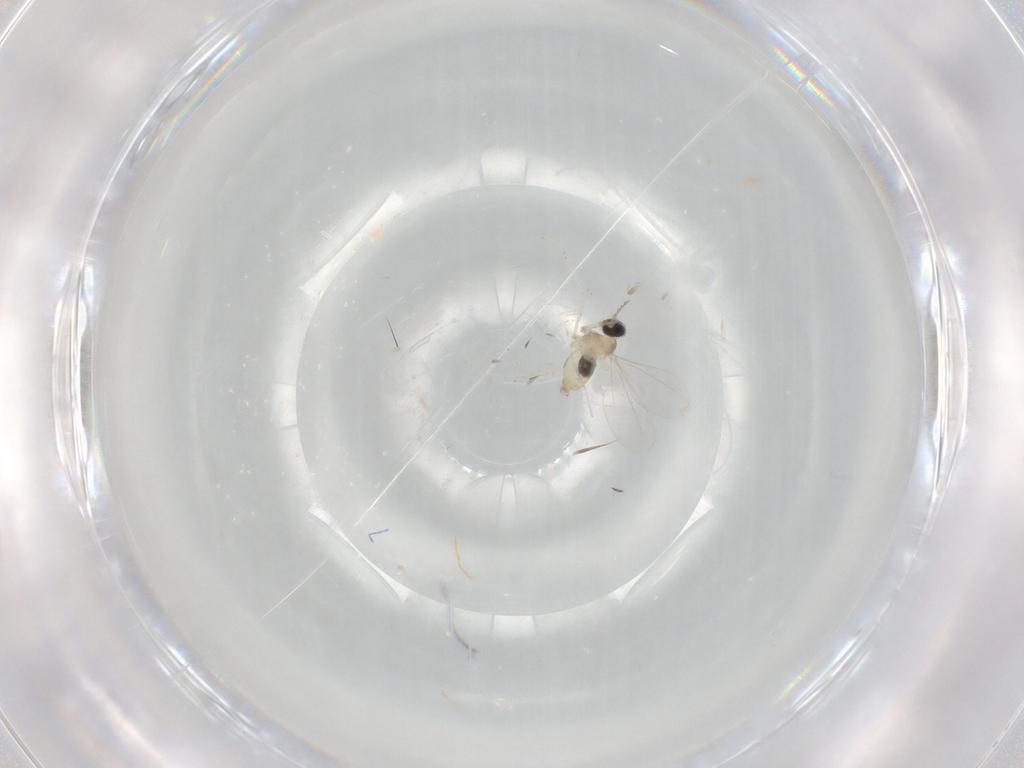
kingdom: Animalia
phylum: Arthropoda
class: Insecta
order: Diptera
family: Cecidomyiidae
